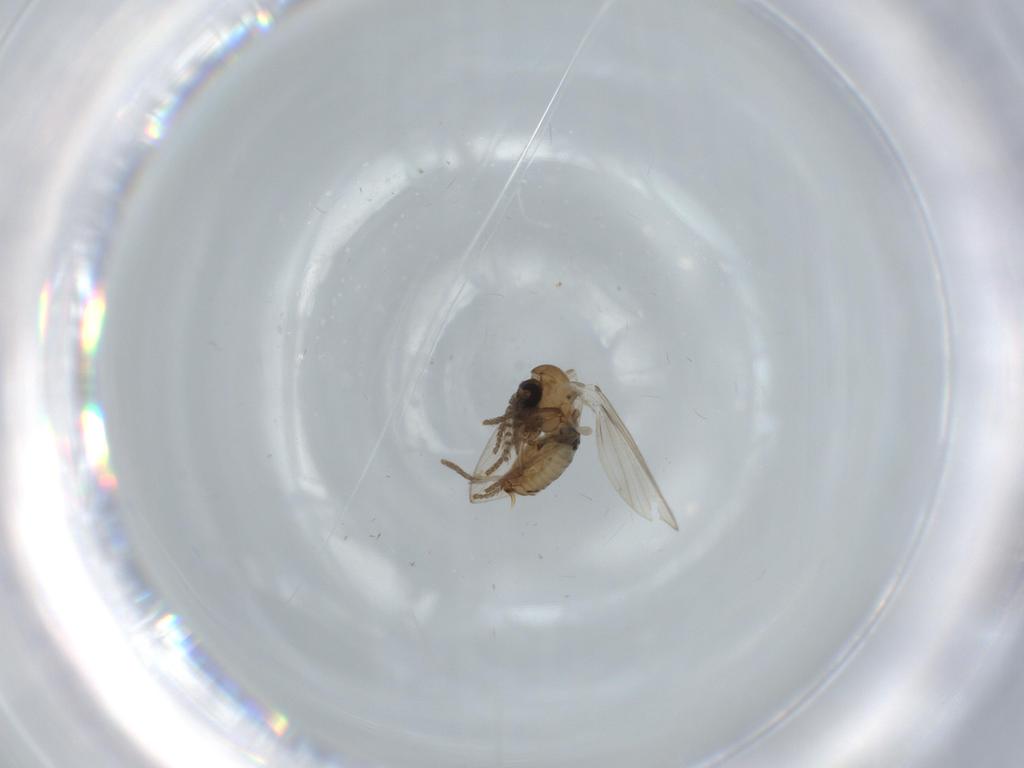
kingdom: Animalia
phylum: Arthropoda
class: Insecta
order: Diptera
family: Psychodidae
